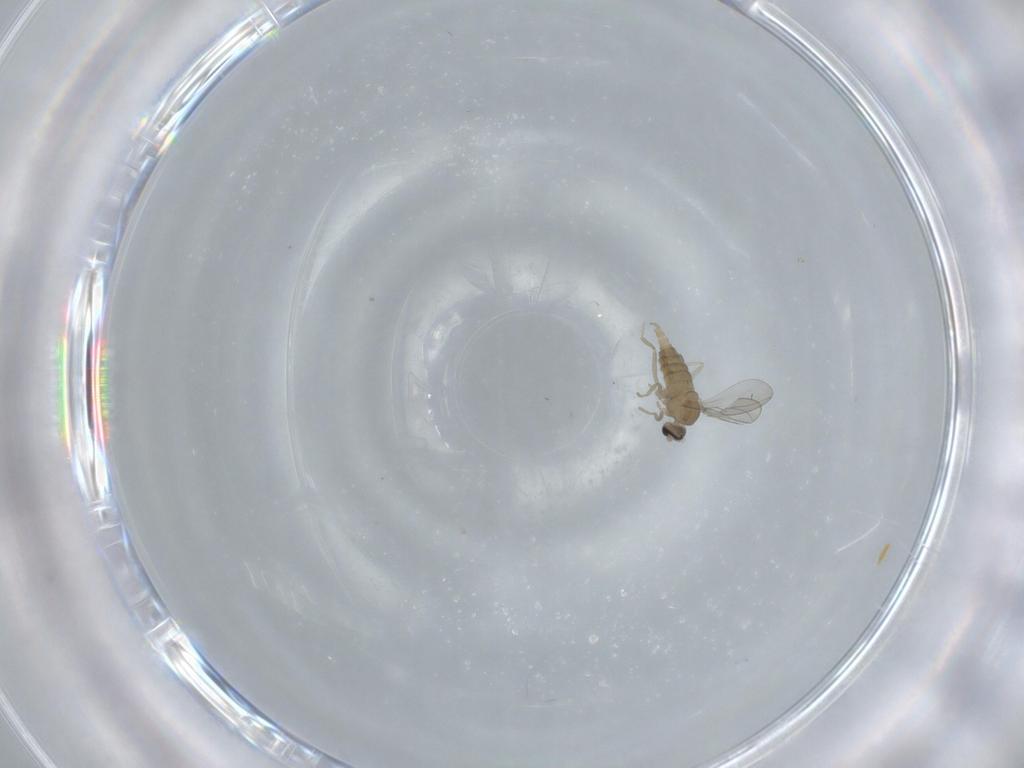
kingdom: Animalia
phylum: Arthropoda
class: Insecta
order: Diptera
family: Cecidomyiidae
